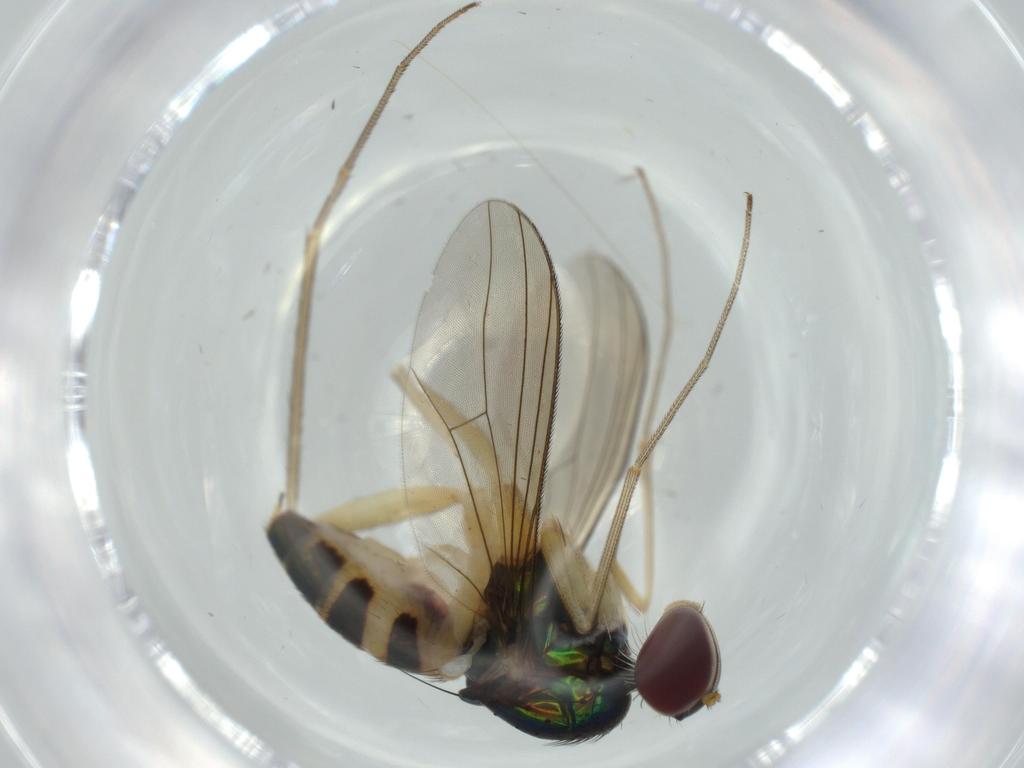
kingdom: Animalia
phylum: Arthropoda
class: Insecta
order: Diptera
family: Dolichopodidae
